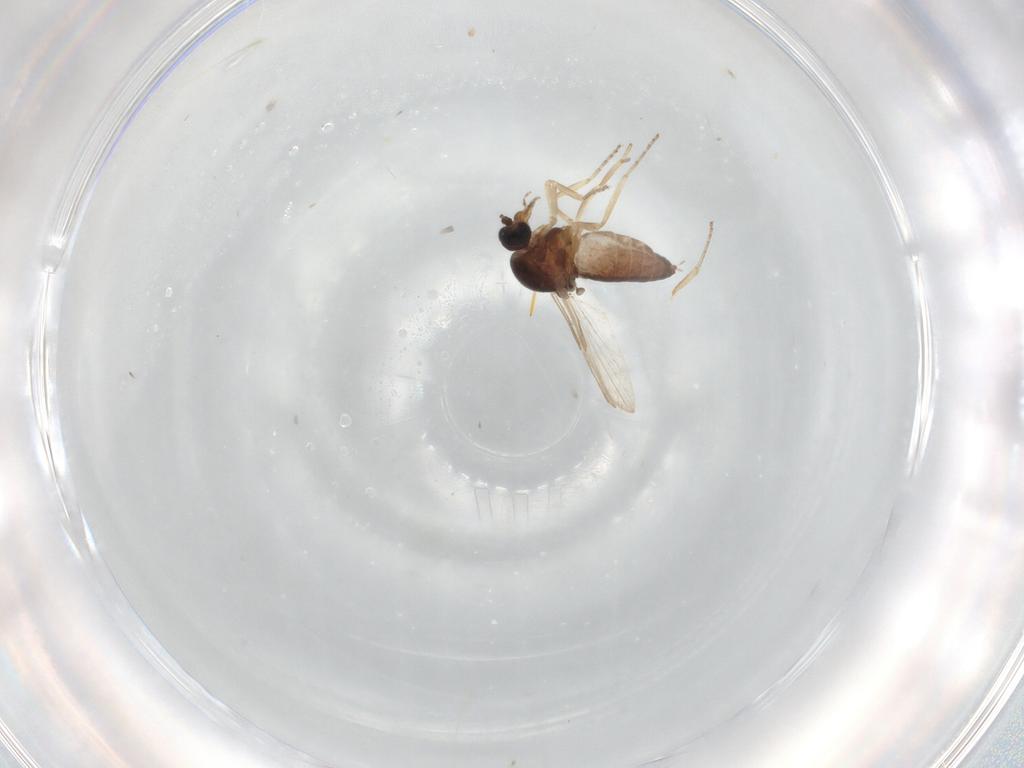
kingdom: Animalia
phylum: Arthropoda
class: Insecta
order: Diptera
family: Ceratopogonidae
